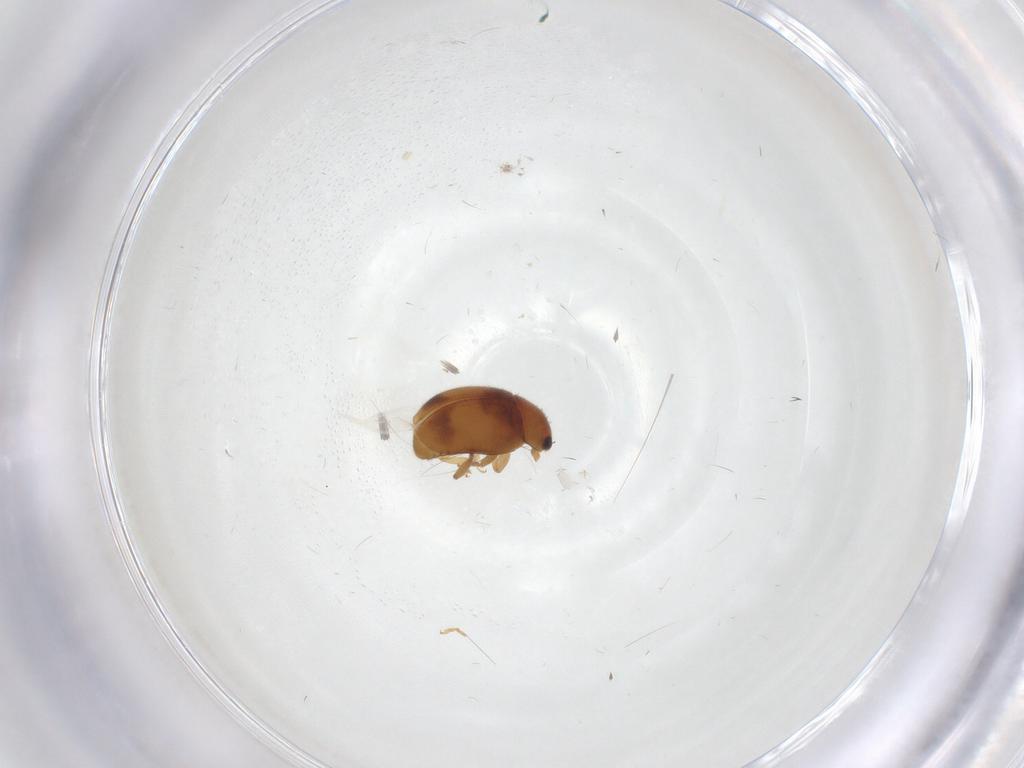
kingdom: Animalia
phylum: Arthropoda
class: Insecta
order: Coleoptera
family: Coccinellidae
